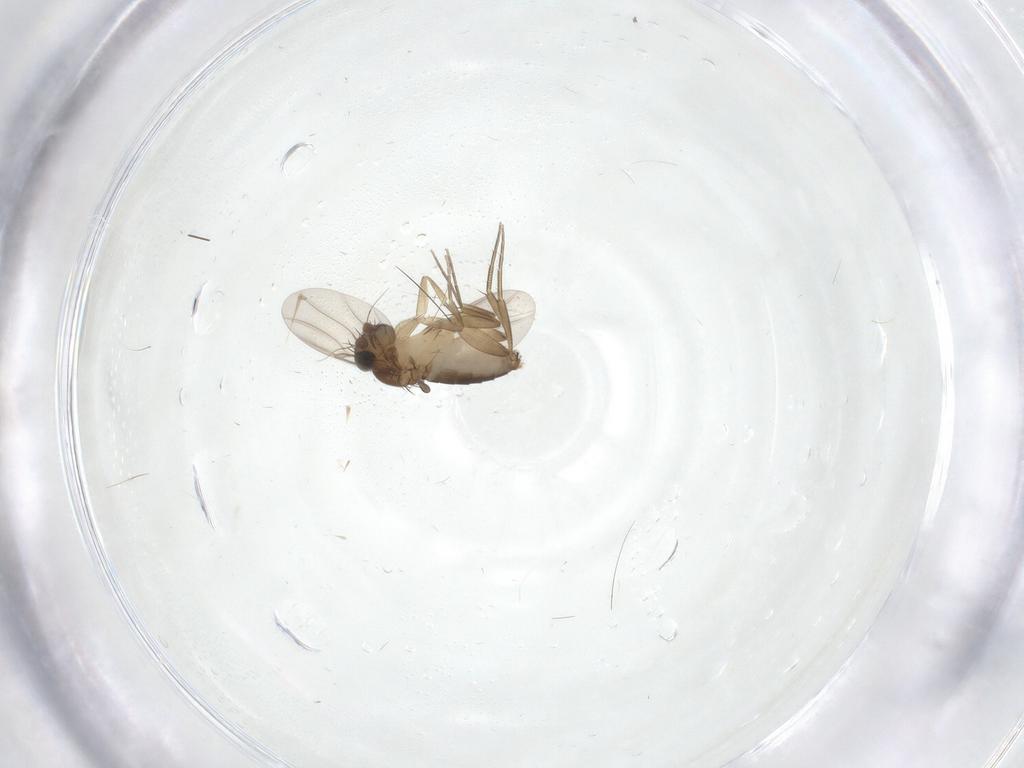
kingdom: Animalia
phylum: Arthropoda
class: Insecta
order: Diptera
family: Phoridae
